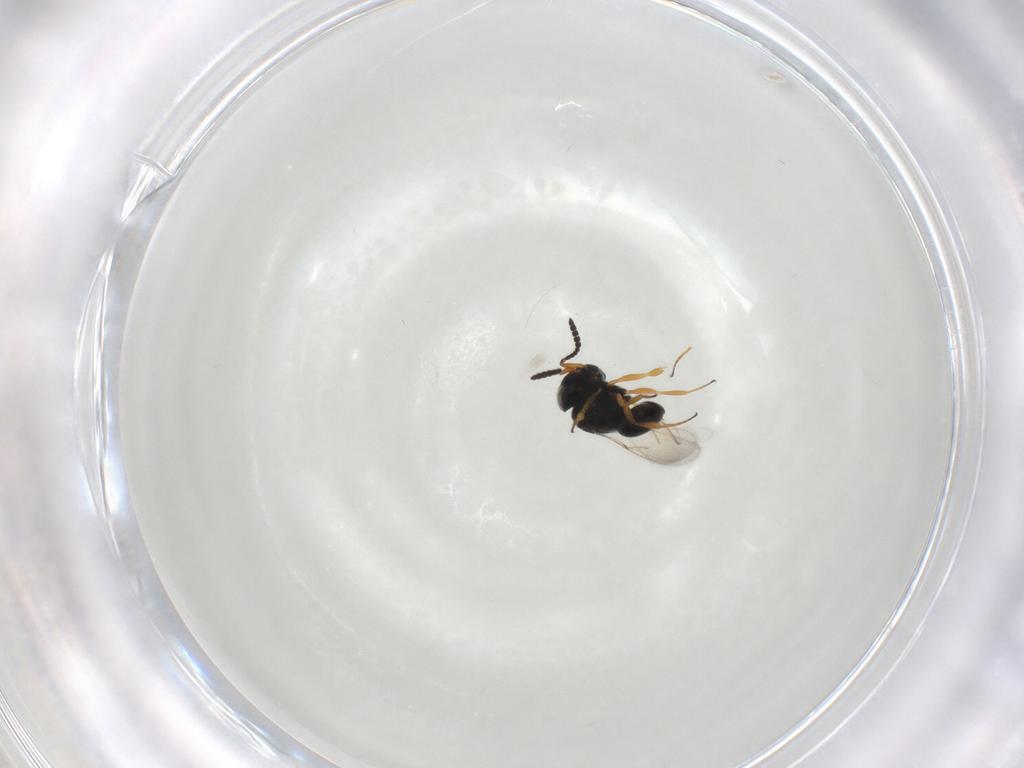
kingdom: Animalia
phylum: Arthropoda
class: Insecta
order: Hymenoptera
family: Scelionidae
